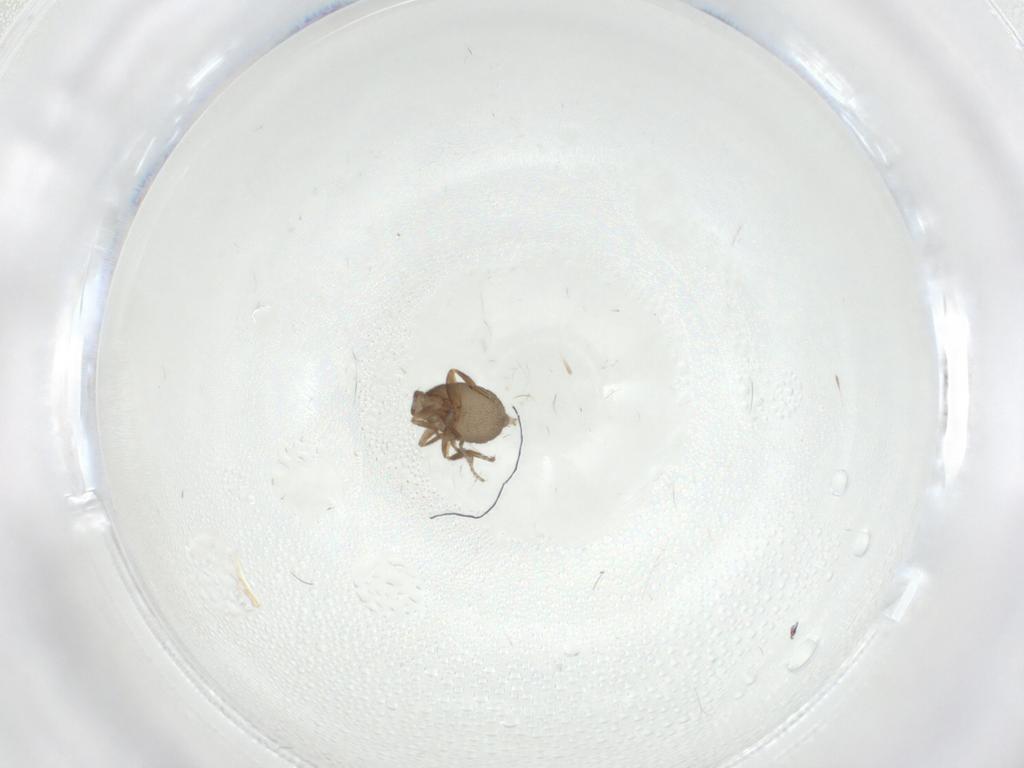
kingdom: Animalia
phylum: Arthropoda
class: Insecta
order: Diptera
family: Phoridae
